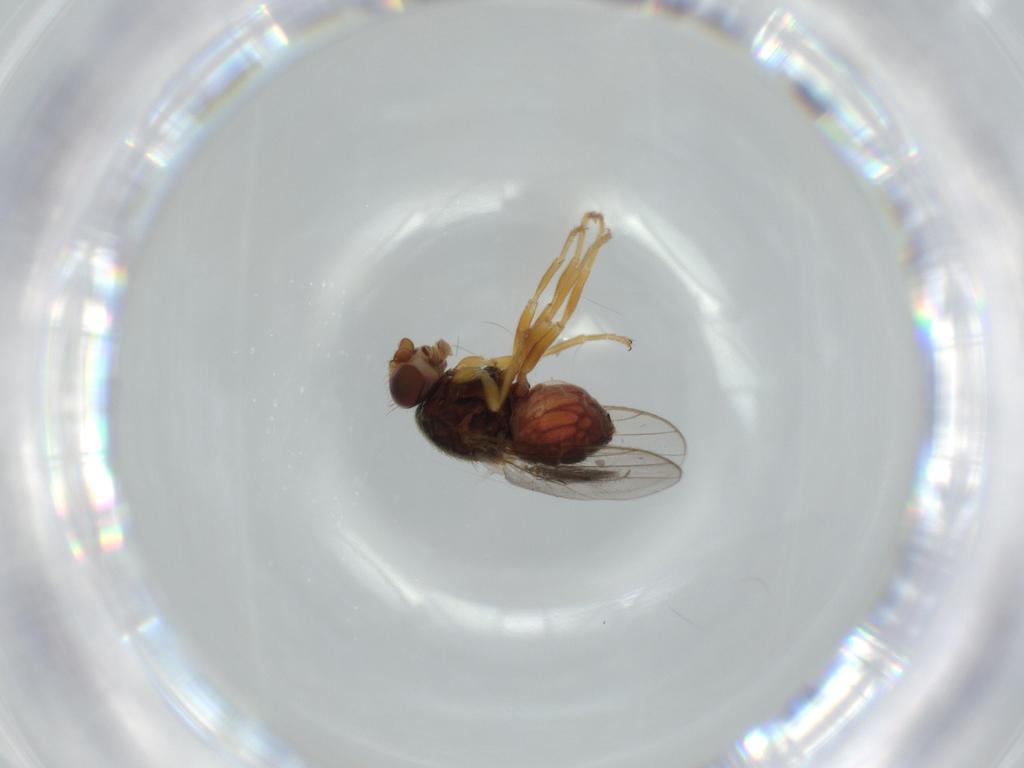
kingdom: Animalia
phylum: Arthropoda
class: Insecta
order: Diptera
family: Chloropidae
